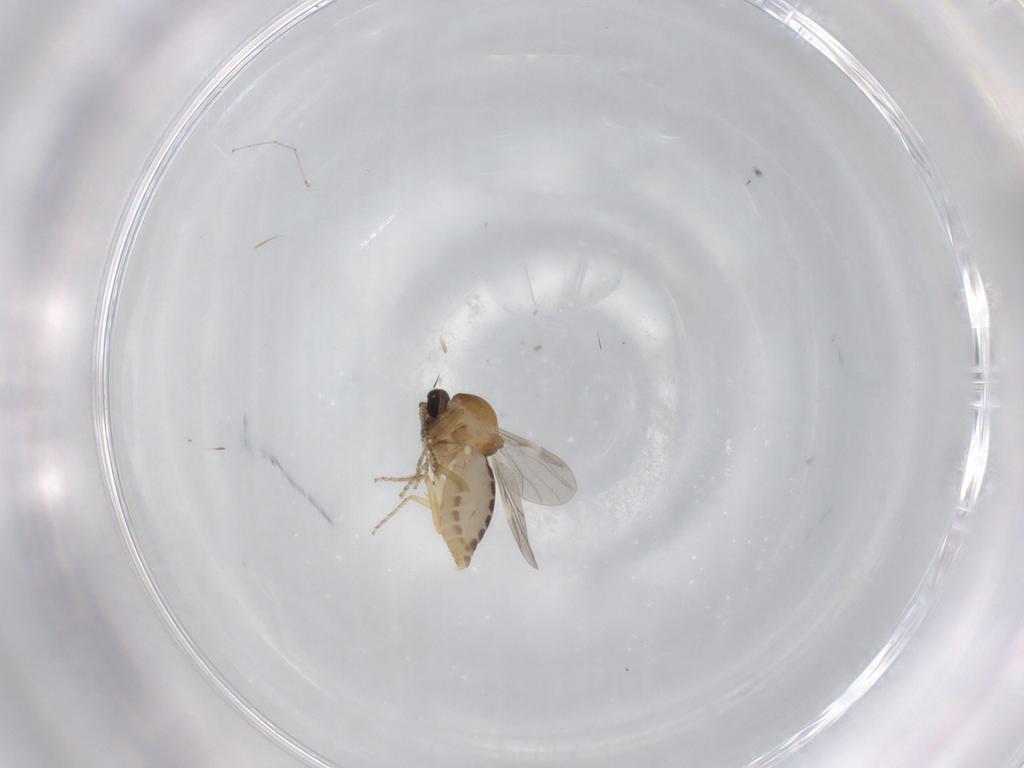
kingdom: Animalia
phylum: Arthropoda
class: Insecta
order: Diptera
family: Ceratopogonidae
